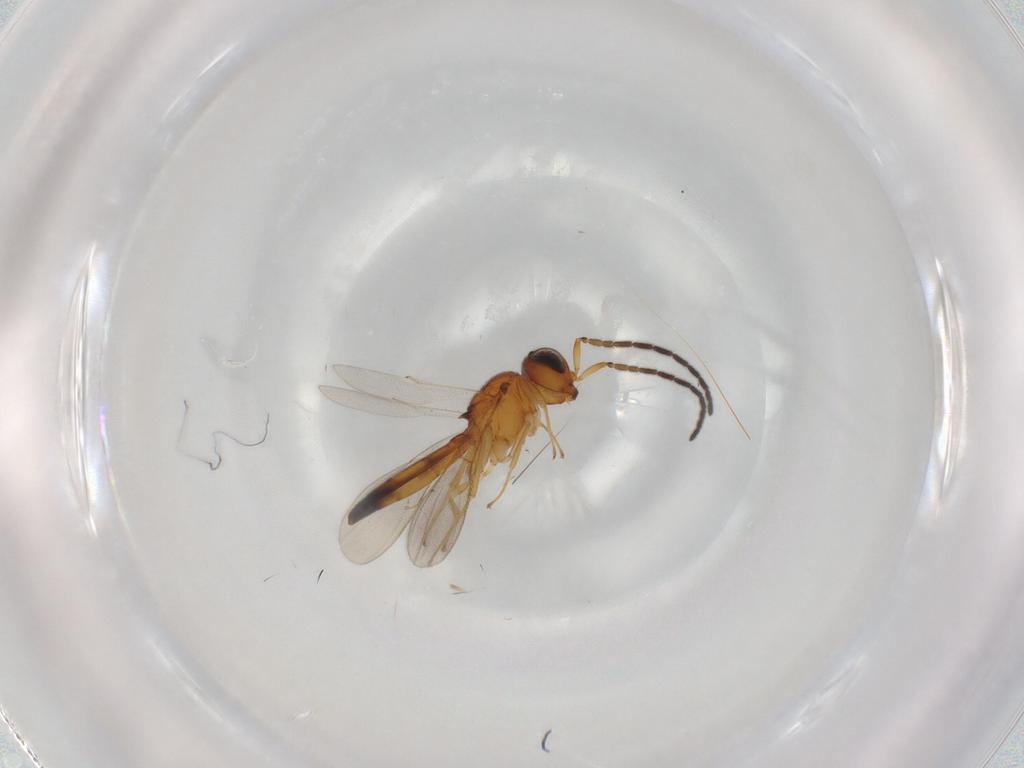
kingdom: Animalia
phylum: Arthropoda
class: Insecta
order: Hymenoptera
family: Scelionidae
